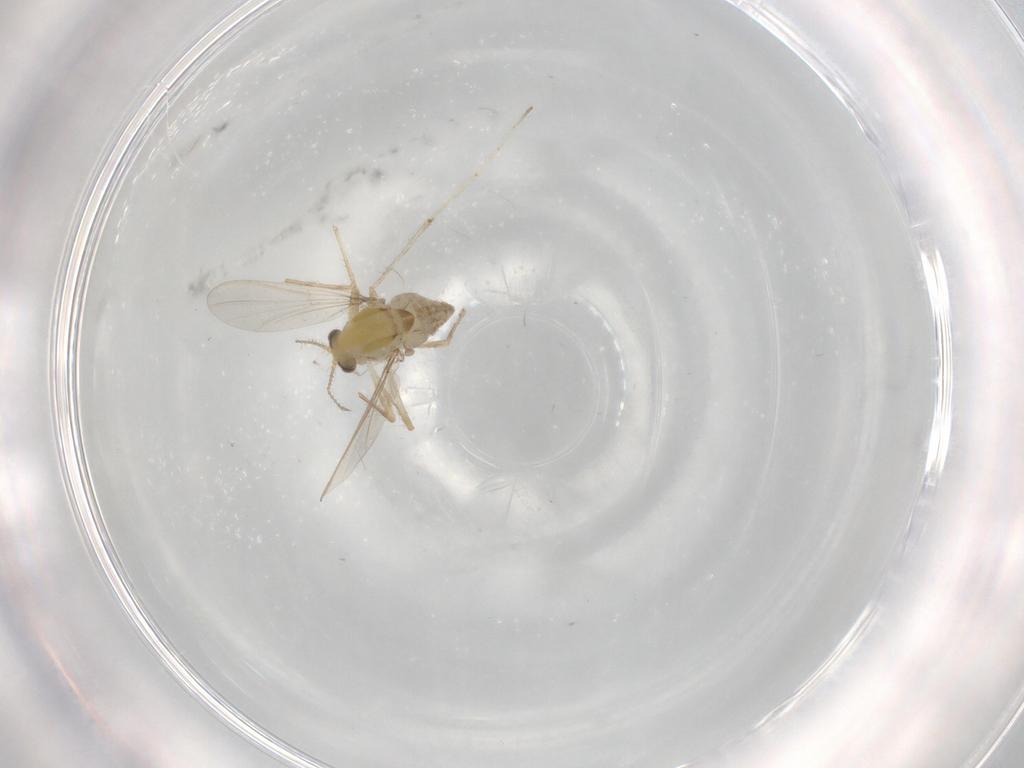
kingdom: Animalia
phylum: Arthropoda
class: Insecta
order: Diptera
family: Chironomidae
